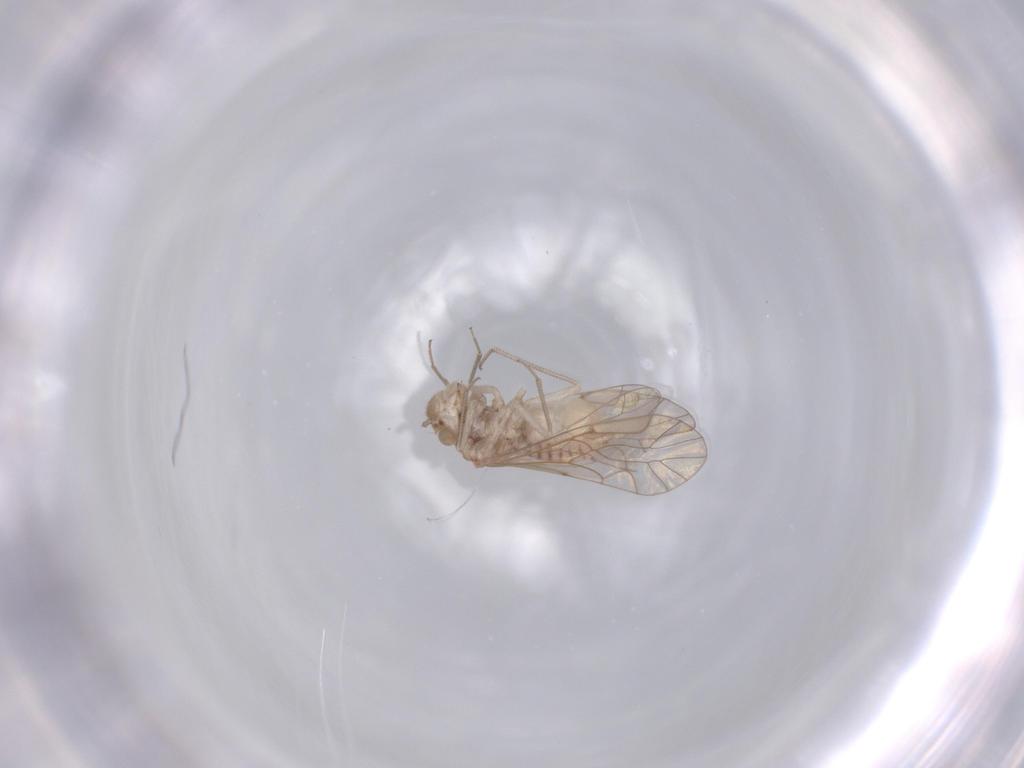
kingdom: Animalia
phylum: Arthropoda
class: Insecta
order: Psocodea
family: Lachesillidae
